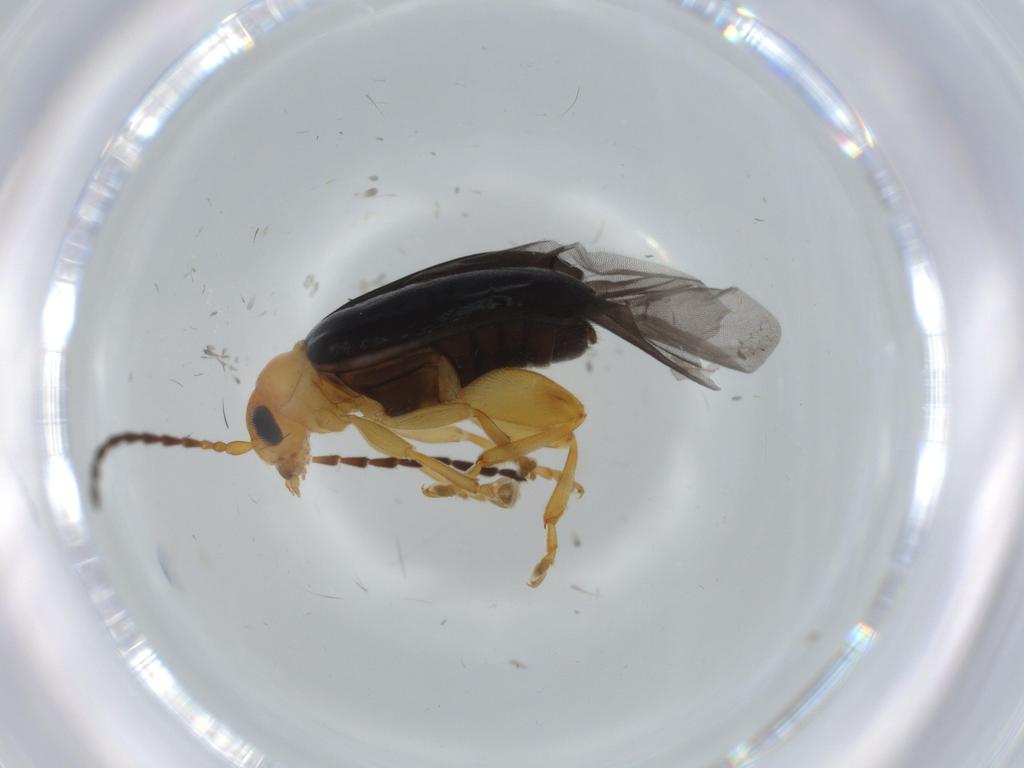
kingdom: Animalia
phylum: Arthropoda
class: Insecta
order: Coleoptera
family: Chrysomelidae
